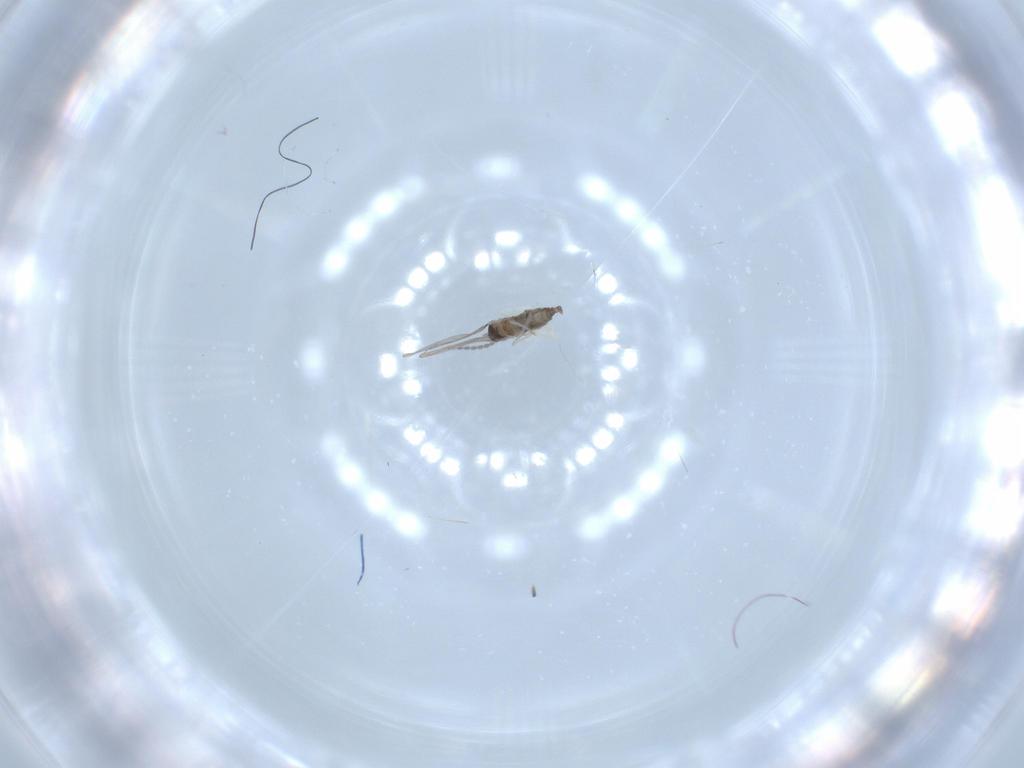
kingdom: Animalia
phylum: Arthropoda
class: Insecta
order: Diptera
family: Cecidomyiidae
